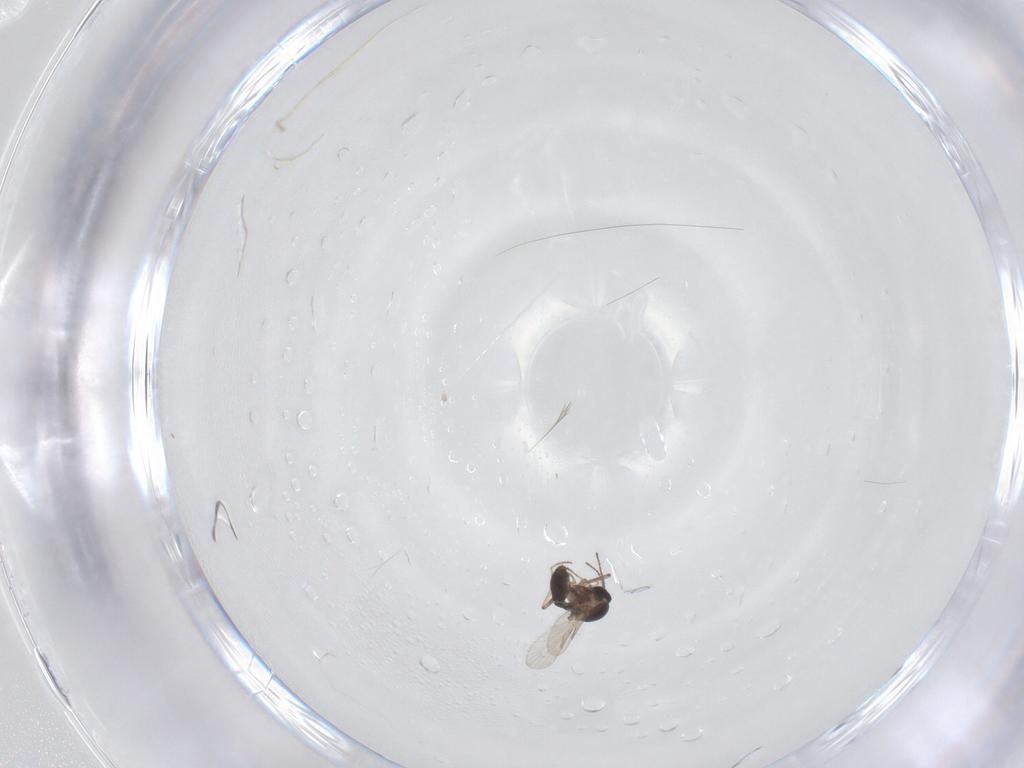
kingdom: Animalia
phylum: Arthropoda
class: Insecta
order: Diptera
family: Ceratopogonidae
